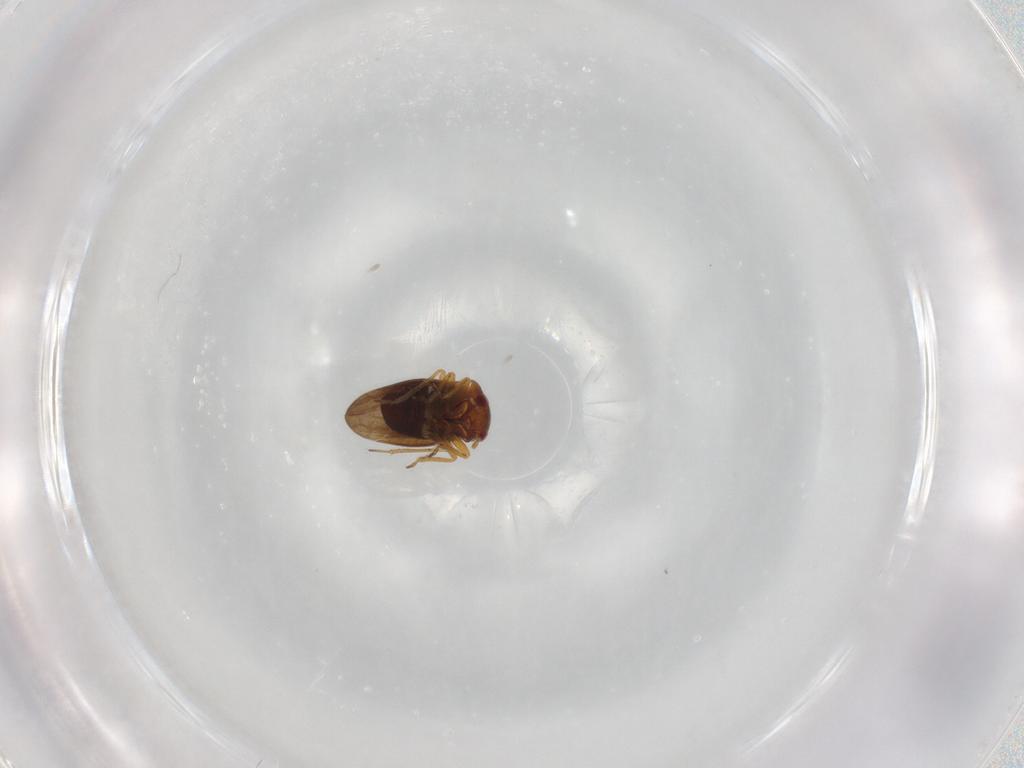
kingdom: Animalia
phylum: Arthropoda
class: Insecta
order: Hemiptera
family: Schizopteridae
